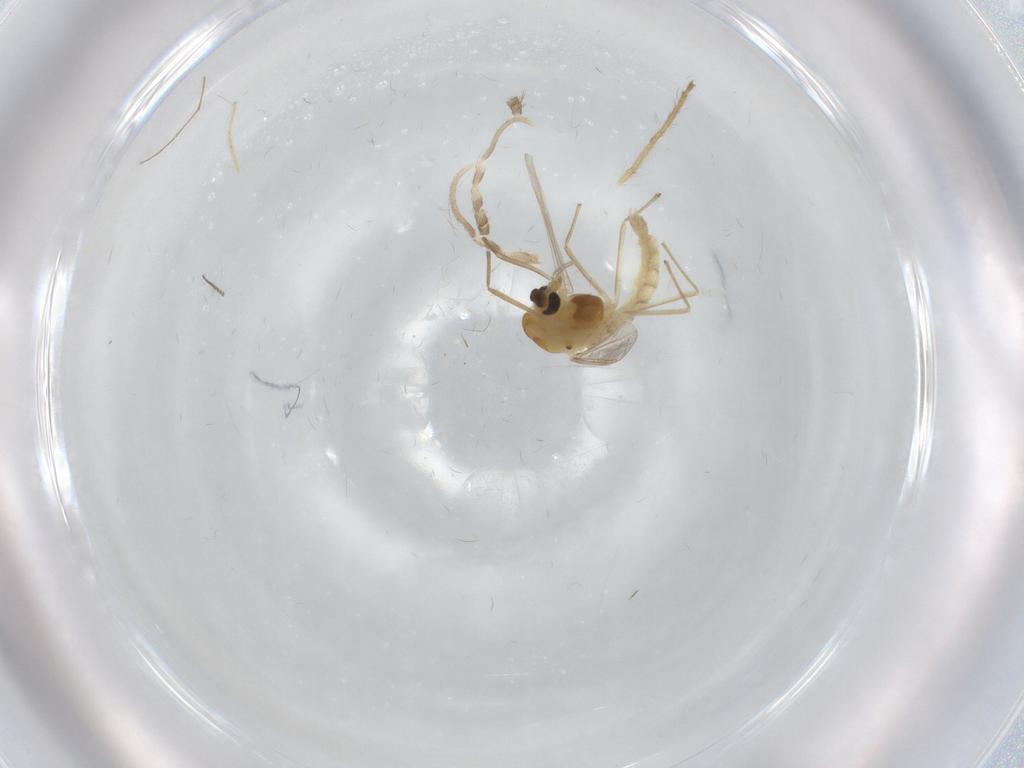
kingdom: Animalia
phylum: Arthropoda
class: Insecta
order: Diptera
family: Chironomidae
